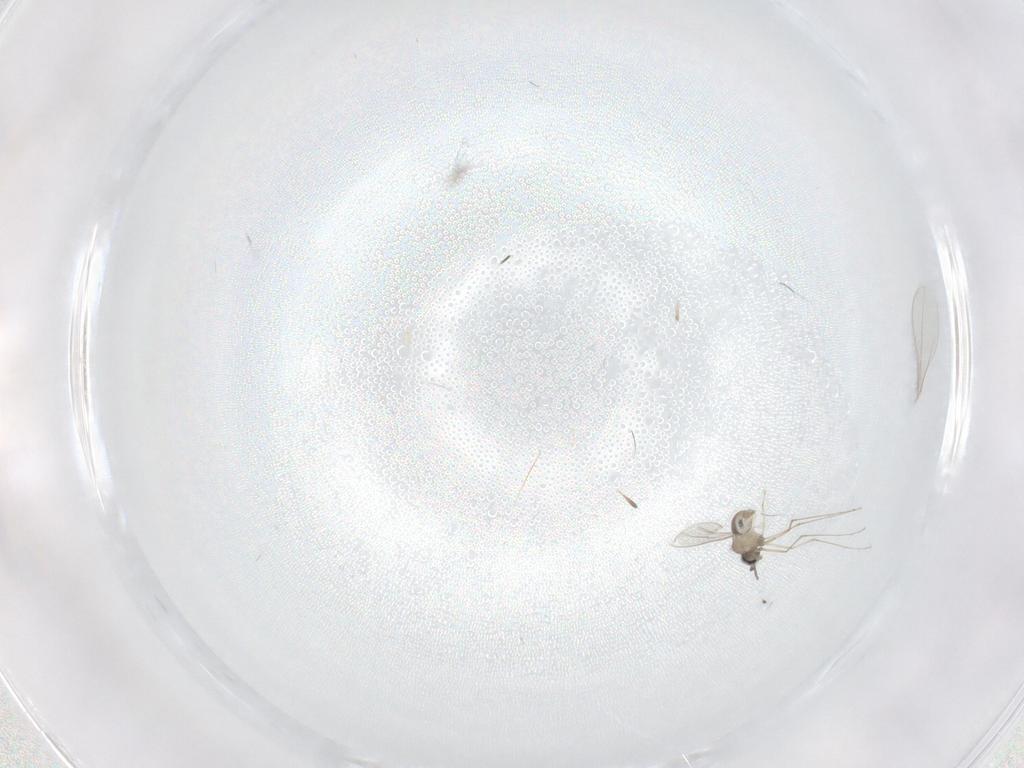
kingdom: Animalia
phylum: Arthropoda
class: Insecta
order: Diptera
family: Cecidomyiidae
